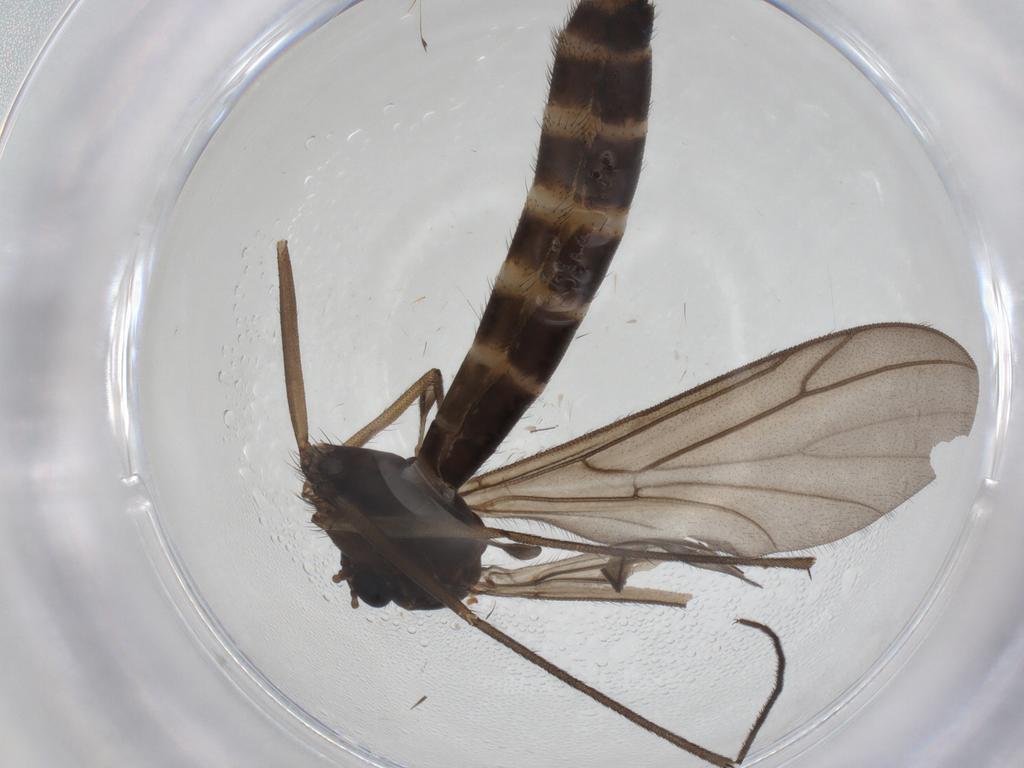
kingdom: Animalia
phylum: Arthropoda
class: Insecta
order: Diptera
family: Ditomyiidae
